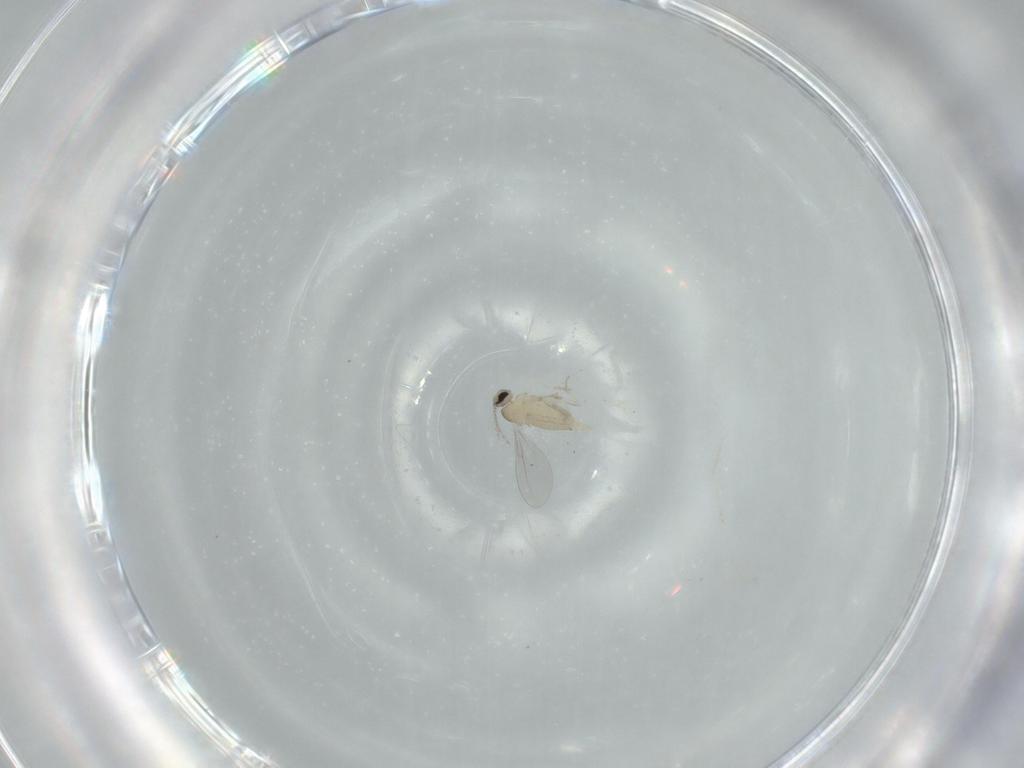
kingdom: Animalia
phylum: Arthropoda
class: Insecta
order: Diptera
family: Cecidomyiidae
